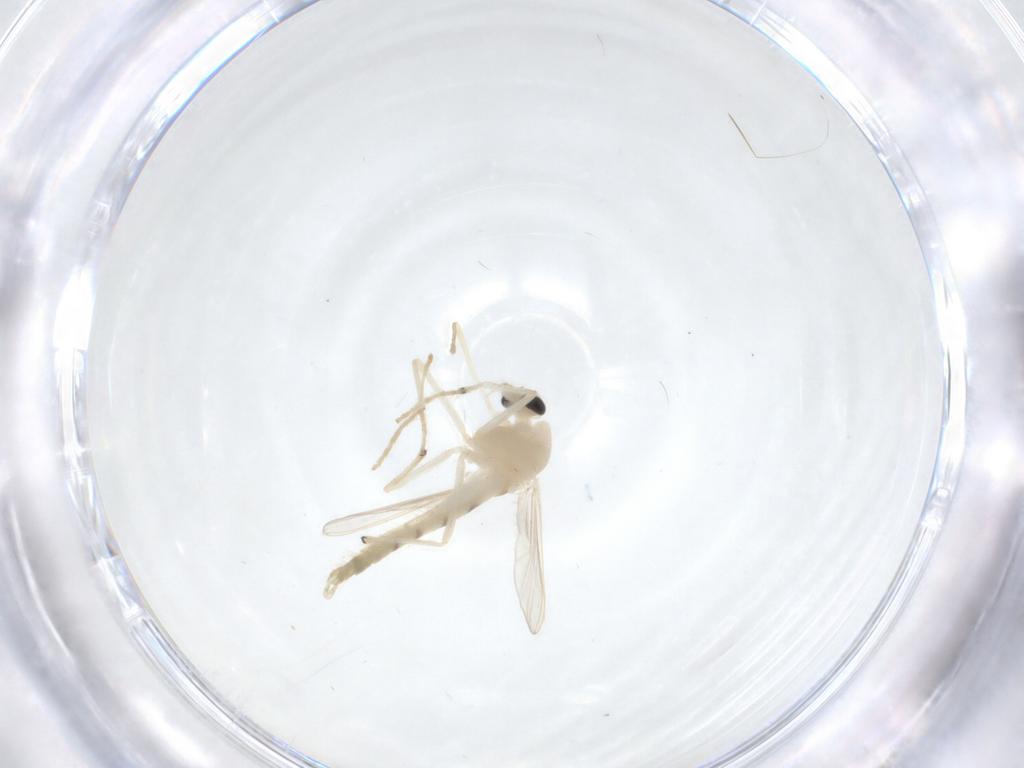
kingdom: Animalia
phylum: Arthropoda
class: Insecta
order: Diptera
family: Chironomidae
